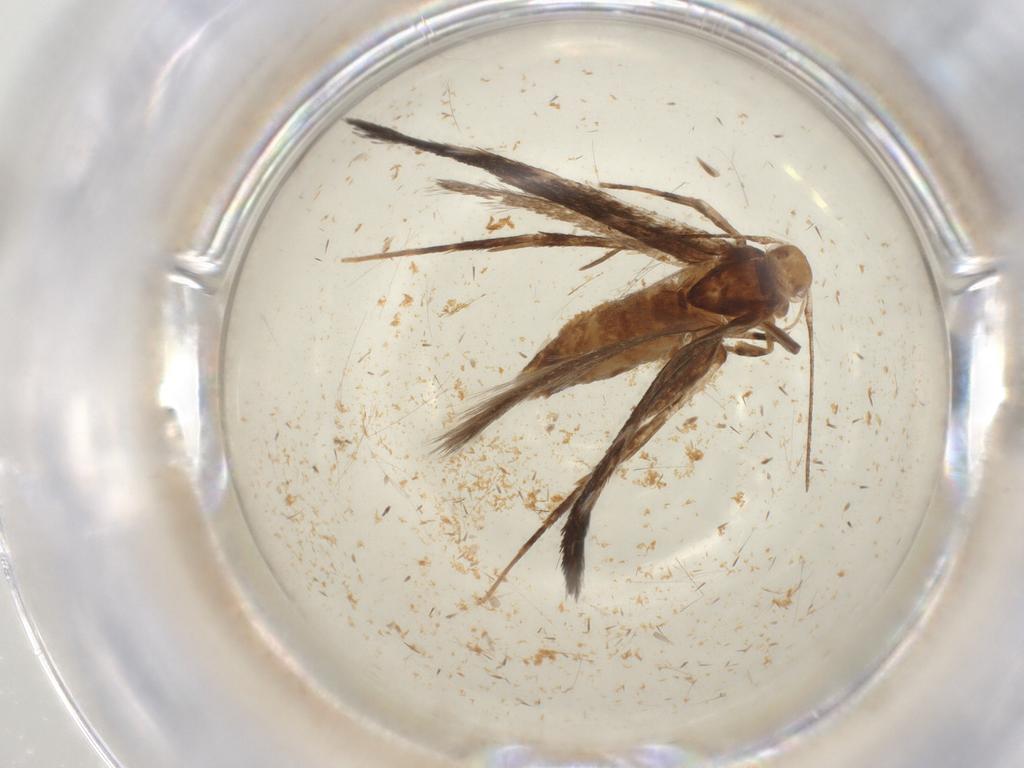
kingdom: Animalia
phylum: Arthropoda
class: Insecta
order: Lepidoptera
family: Cosmopterigidae
